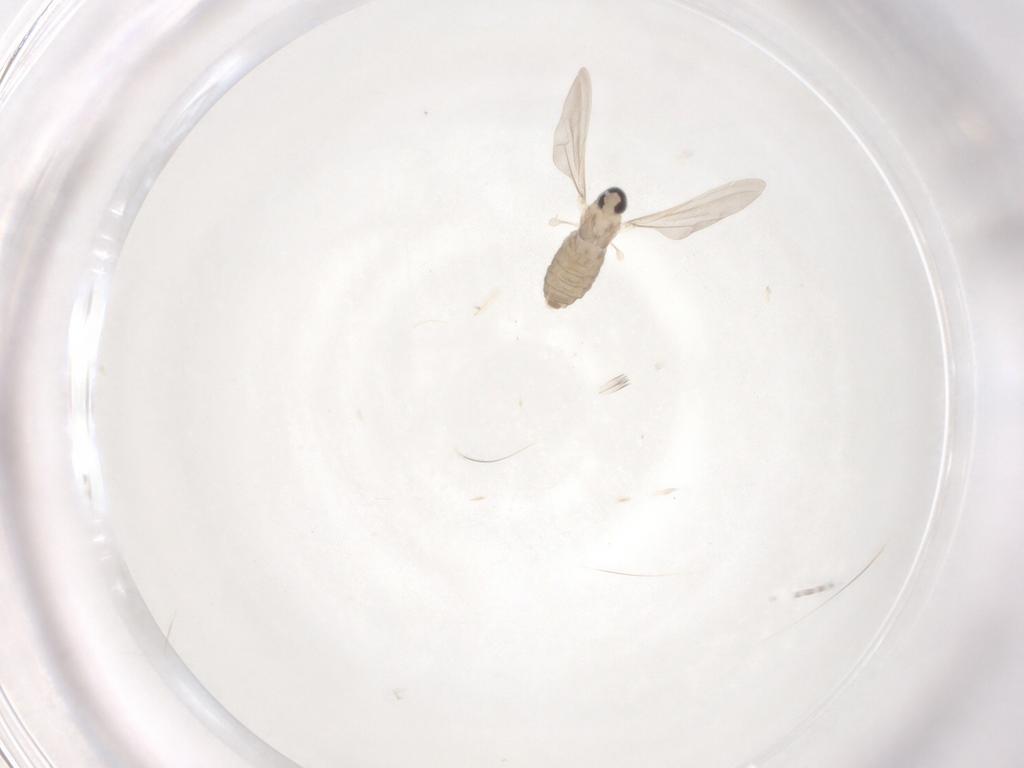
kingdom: Animalia
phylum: Arthropoda
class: Insecta
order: Diptera
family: Cecidomyiidae
